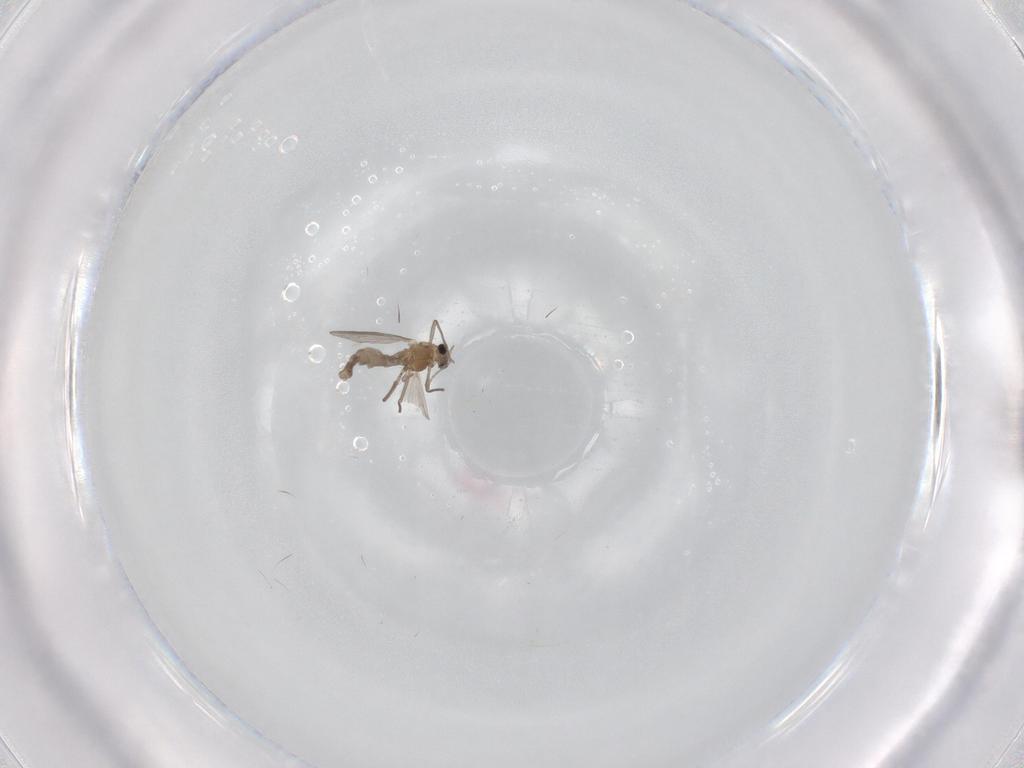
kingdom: Animalia
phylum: Arthropoda
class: Insecta
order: Diptera
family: Chironomidae
